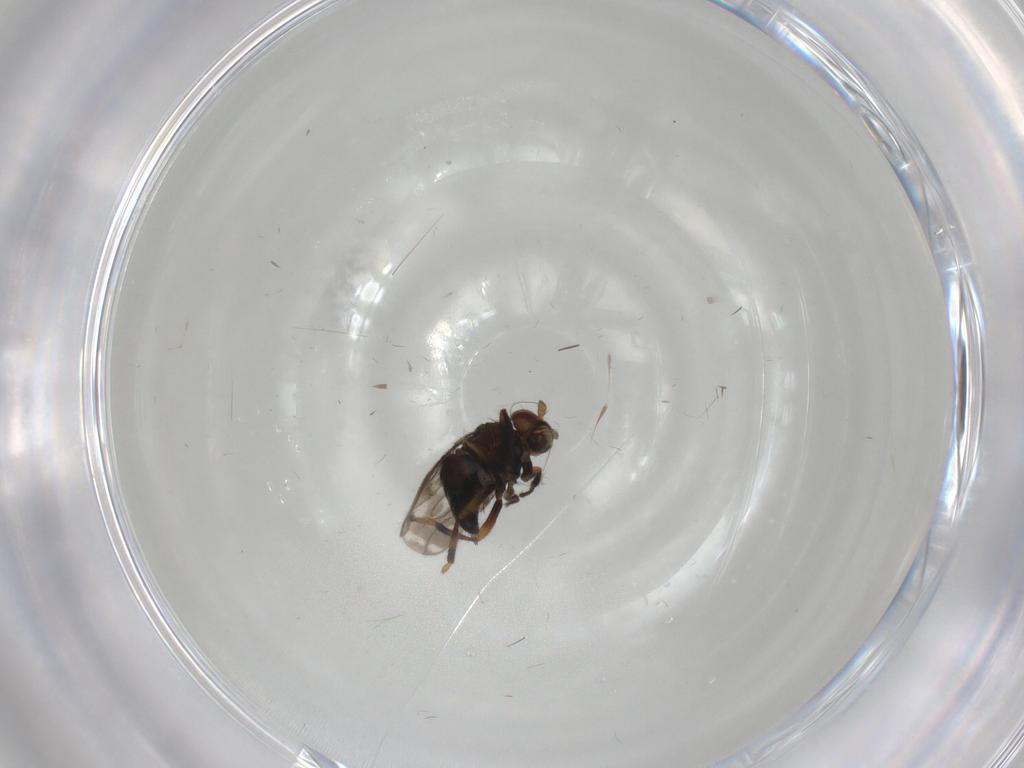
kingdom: Animalia
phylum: Arthropoda
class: Insecta
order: Diptera
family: Sphaeroceridae
